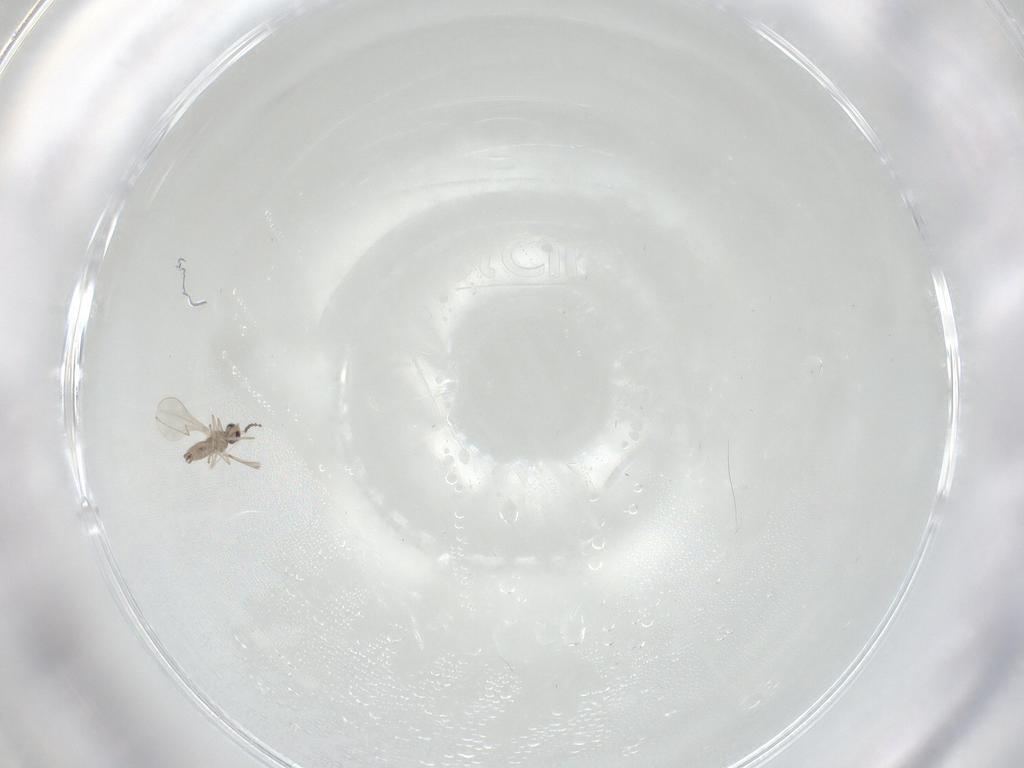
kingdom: Animalia
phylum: Arthropoda
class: Insecta
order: Diptera
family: Cecidomyiidae
